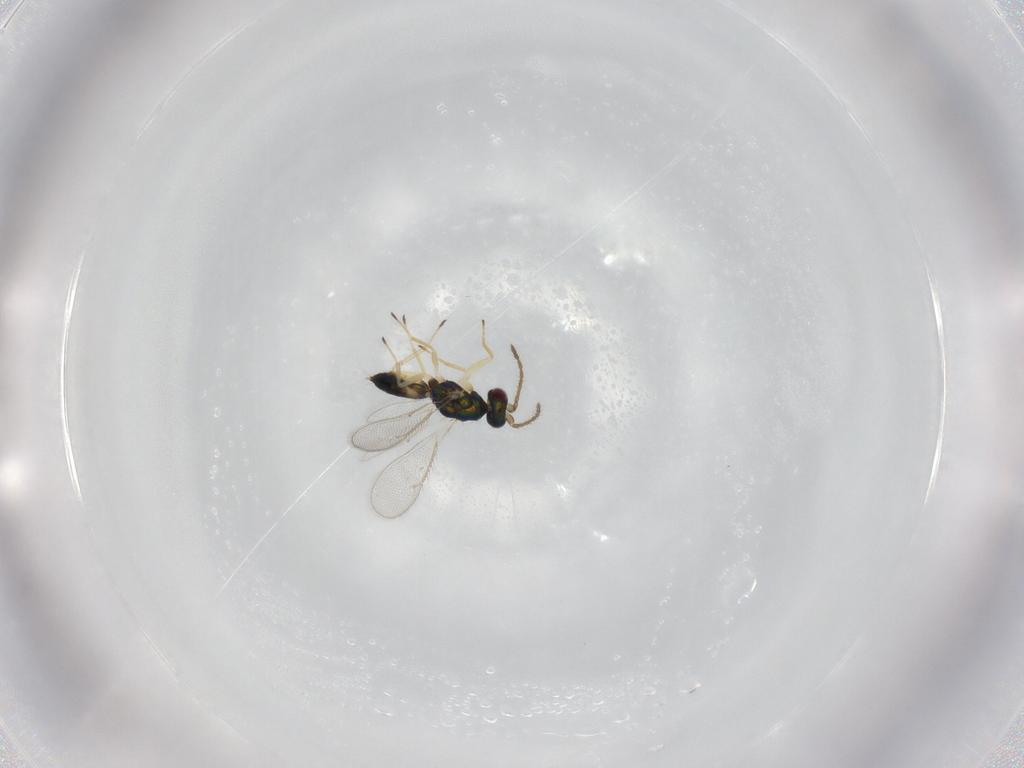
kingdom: Animalia
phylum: Arthropoda
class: Insecta
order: Hymenoptera
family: Eulophidae
